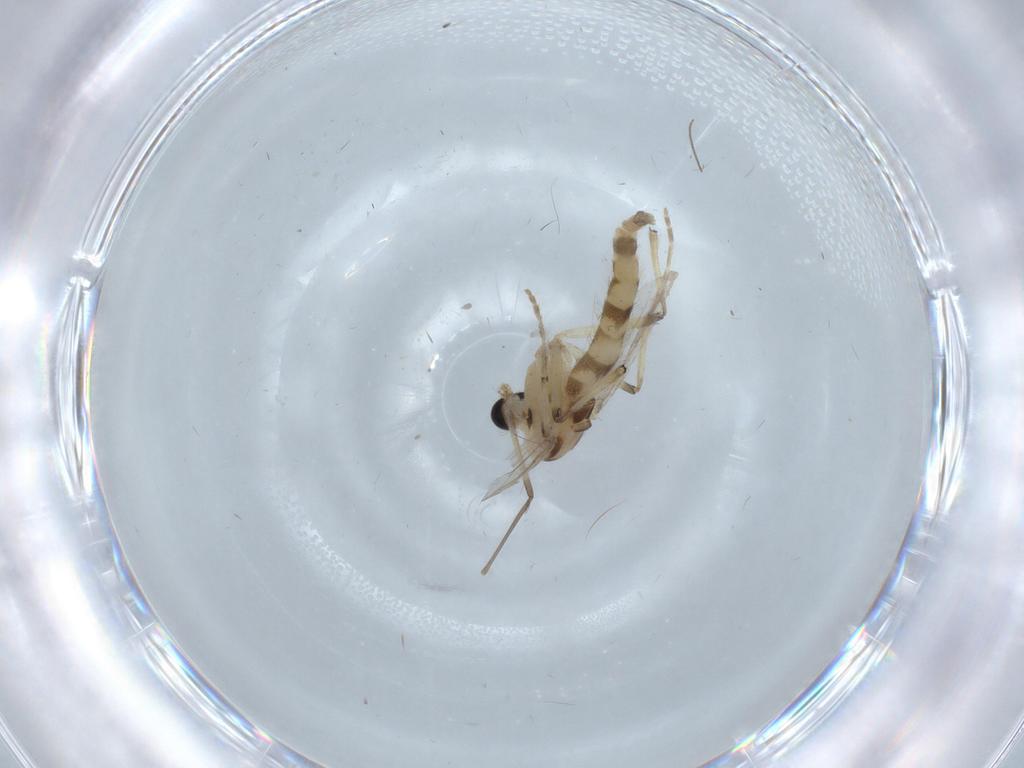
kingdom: Animalia
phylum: Arthropoda
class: Insecta
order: Diptera
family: Chironomidae
